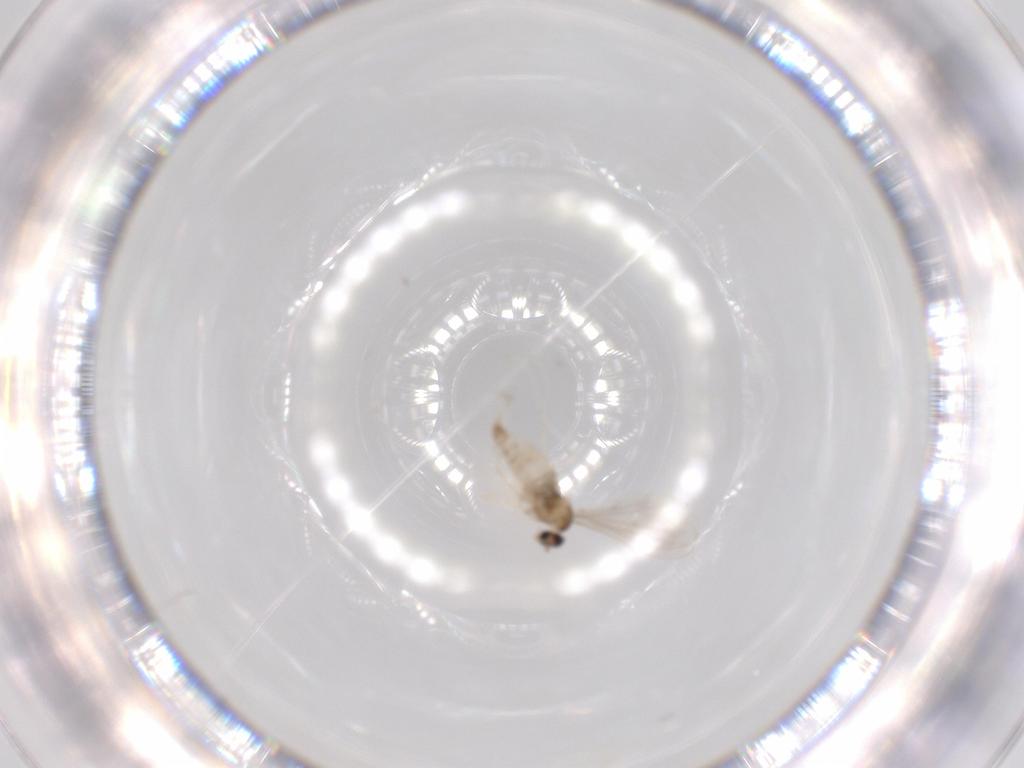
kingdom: Animalia
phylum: Arthropoda
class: Insecta
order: Diptera
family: Cecidomyiidae
